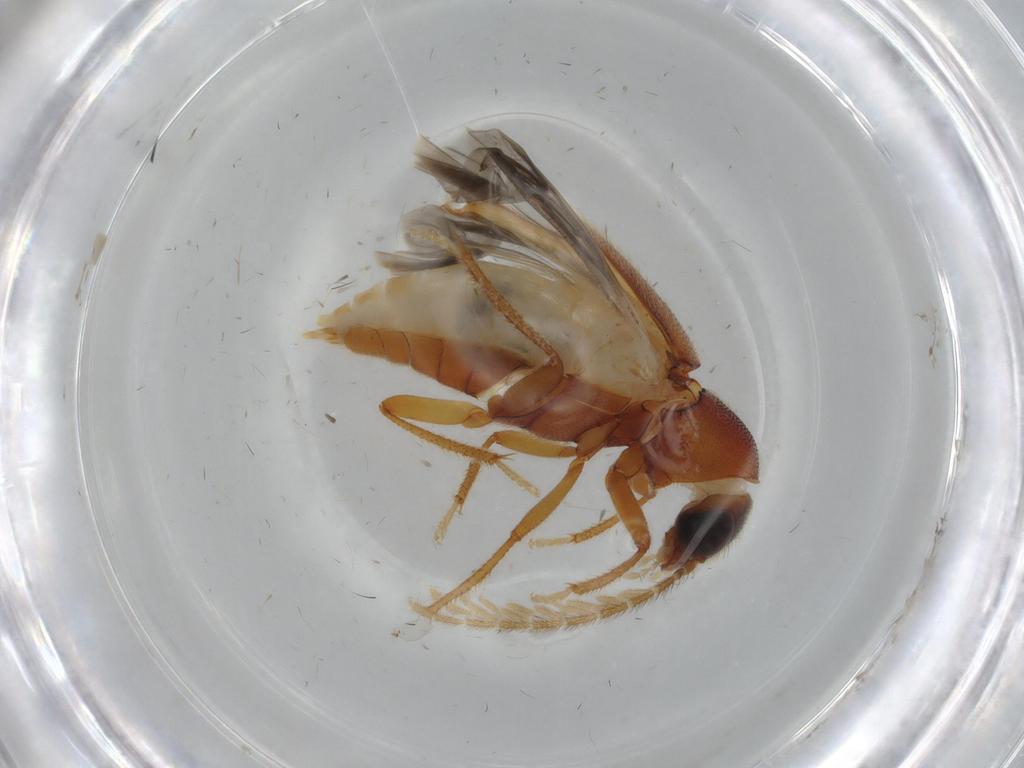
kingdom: Animalia
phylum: Arthropoda
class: Insecta
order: Coleoptera
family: Ptilodactylidae
